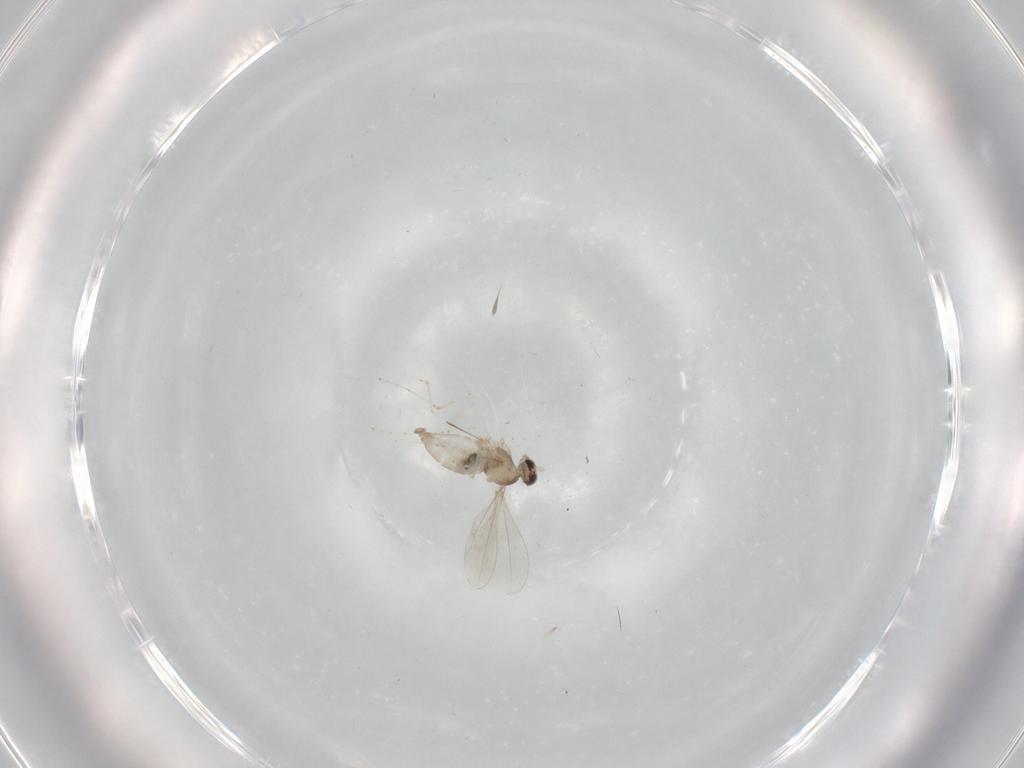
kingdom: Animalia
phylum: Arthropoda
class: Insecta
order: Diptera
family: Cecidomyiidae
